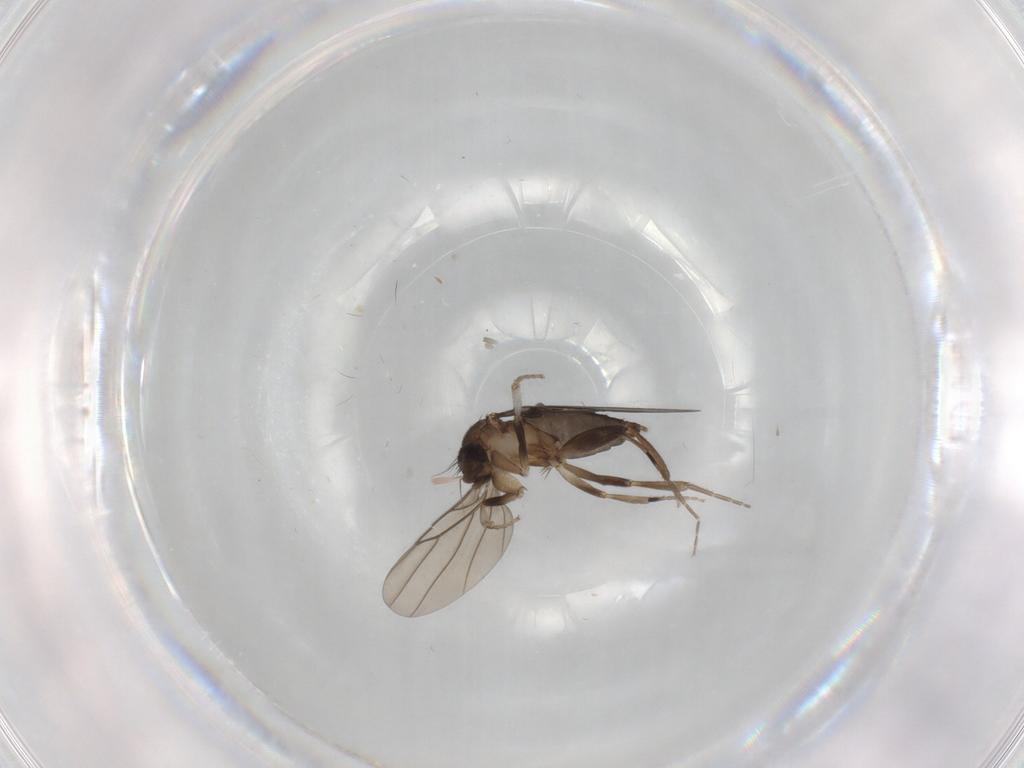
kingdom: Animalia
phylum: Arthropoda
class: Insecta
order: Diptera
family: Phoridae
